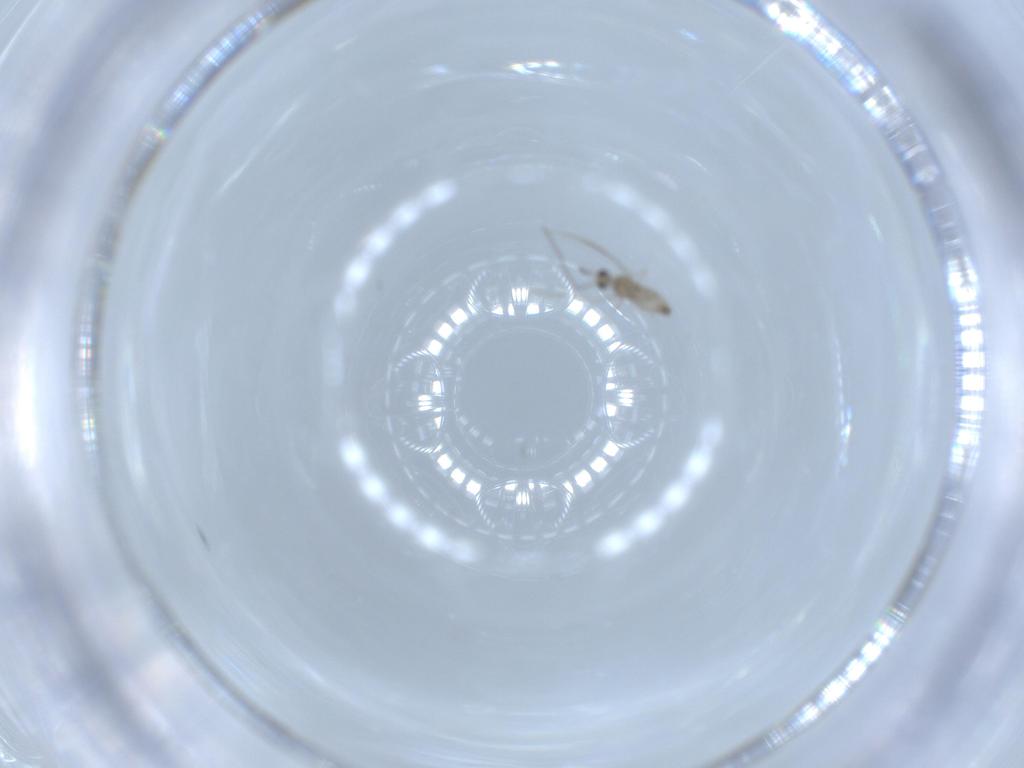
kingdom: Animalia
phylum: Arthropoda
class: Insecta
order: Diptera
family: Cecidomyiidae
